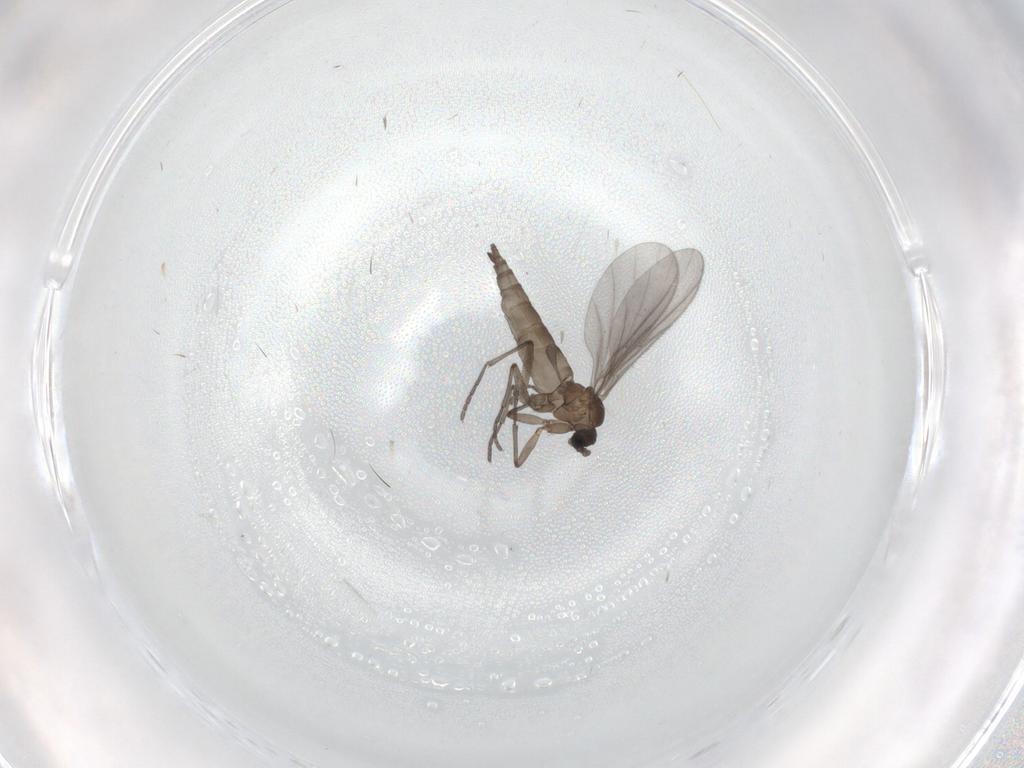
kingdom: Animalia
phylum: Arthropoda
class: Insecta
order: Diptera
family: Sciaridae
